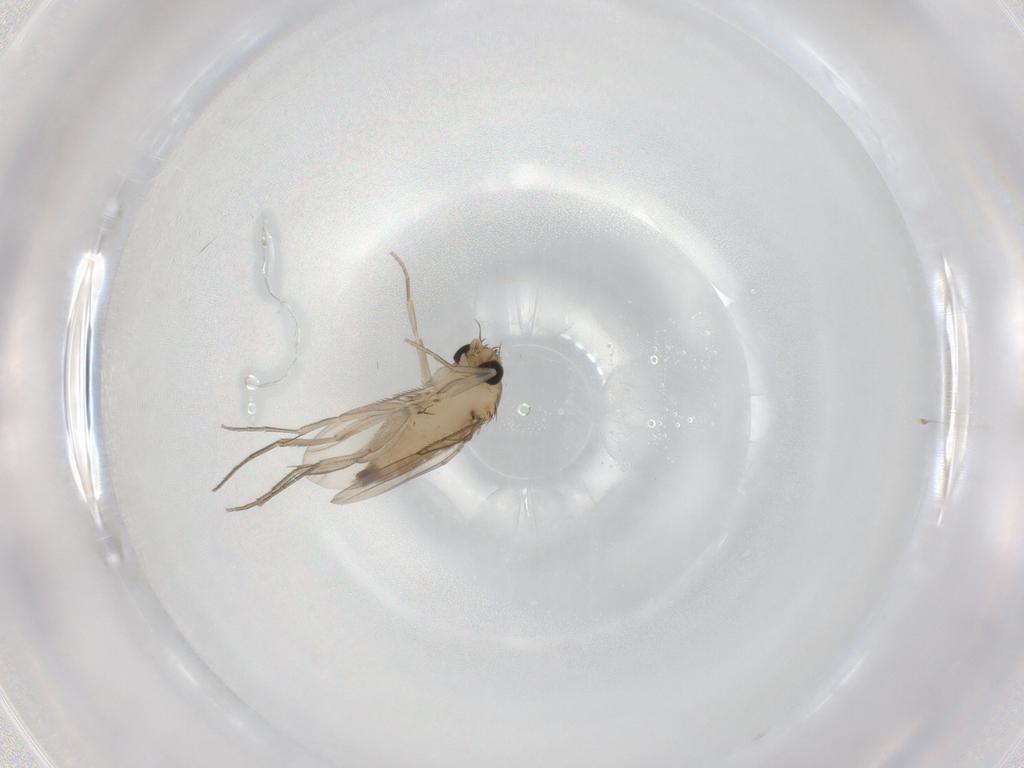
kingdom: Animalia
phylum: Arthropoda
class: Insecta
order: Diptera
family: Phoridae
